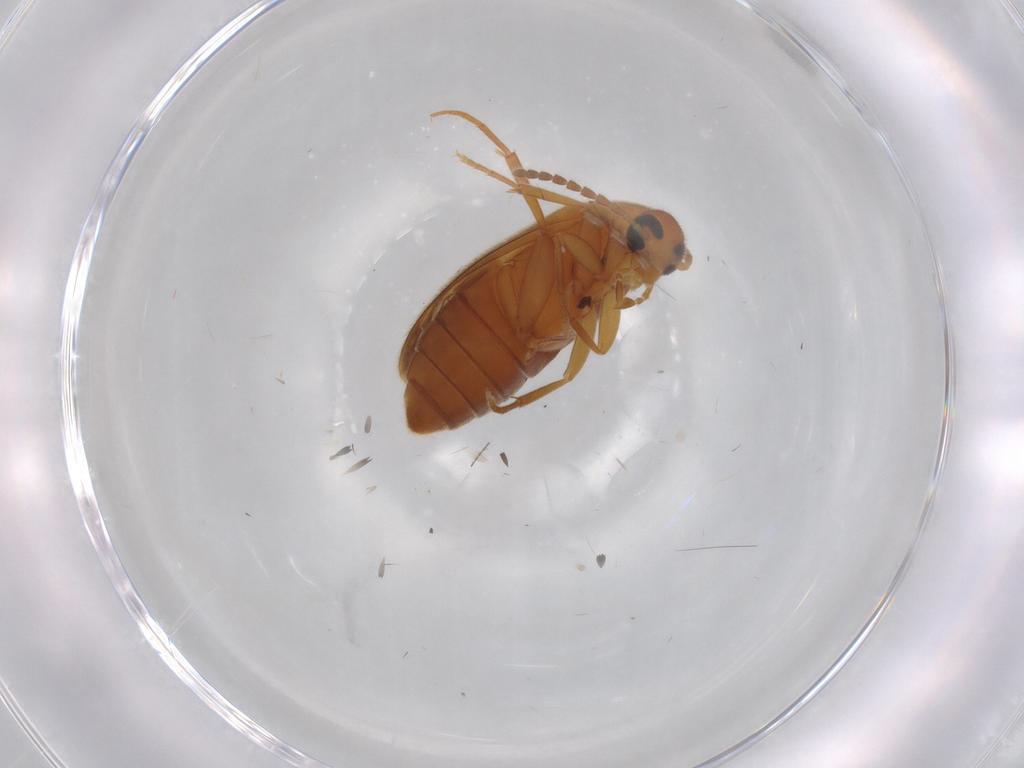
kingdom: Animalia
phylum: Arthropoda
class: Insecta
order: Coleoptera
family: Scraptiidae
